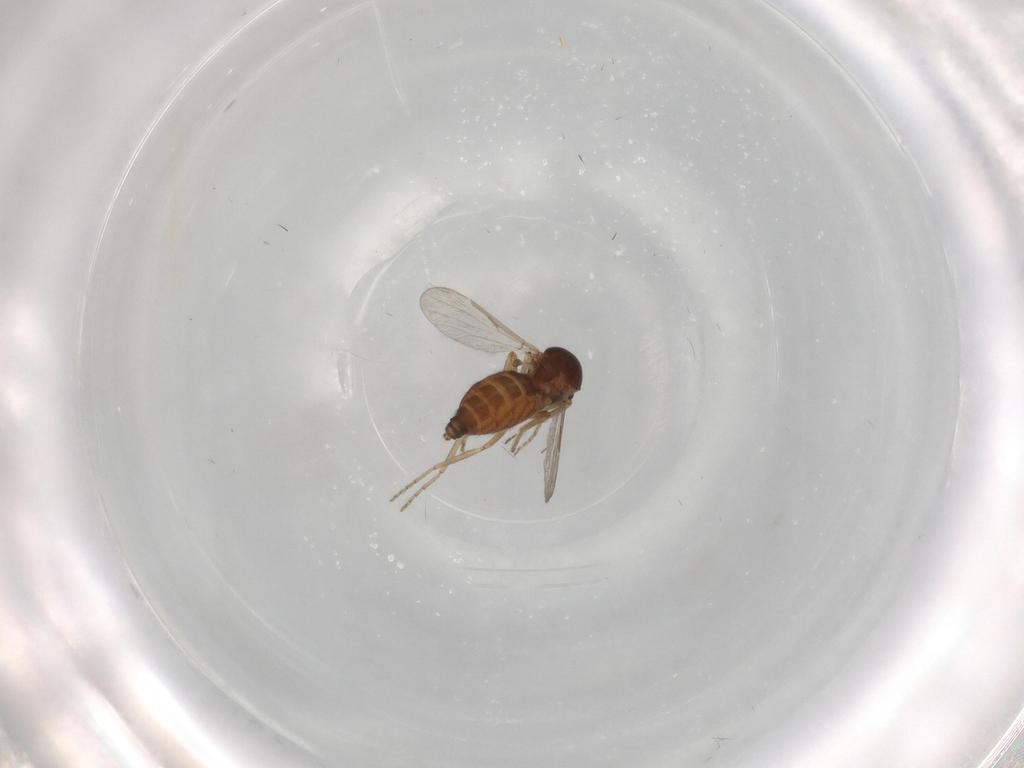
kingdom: Animalia
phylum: Arthropoda
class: Insecta
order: Diptera
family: Ceratopogonidae
